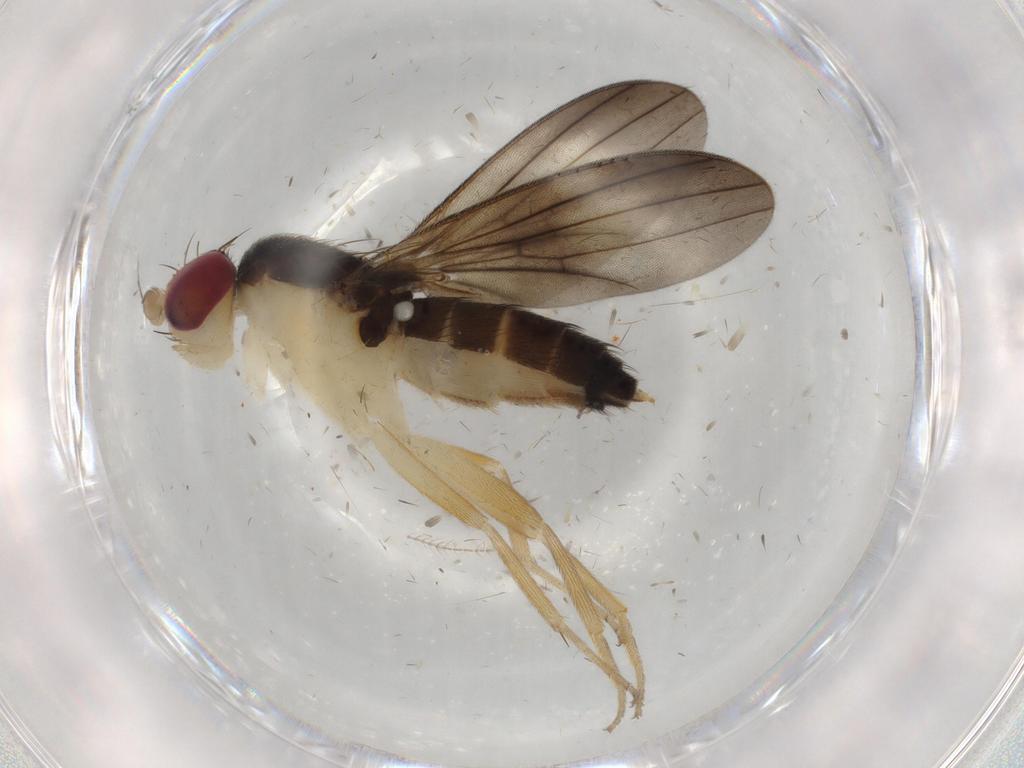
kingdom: Animalia
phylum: Arthropoda
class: Insecta
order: Diptera
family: Ceratopogonidae
